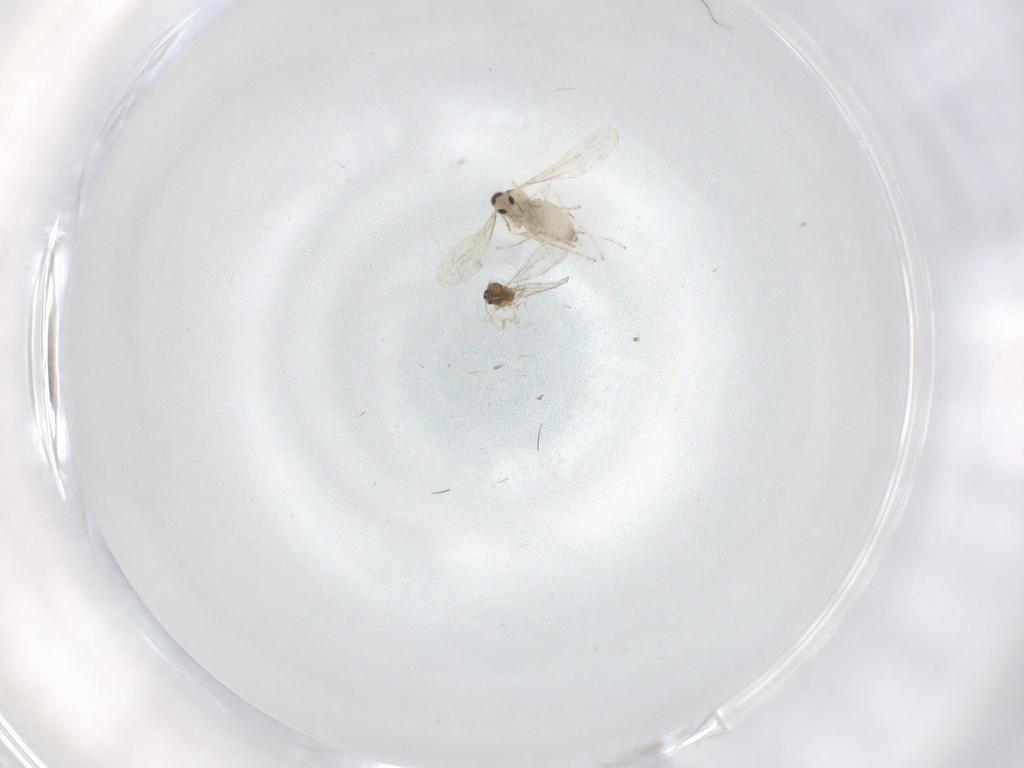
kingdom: Animalia
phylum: Arthropoda
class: Insecta
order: Diptera
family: Cecidomyiidae
